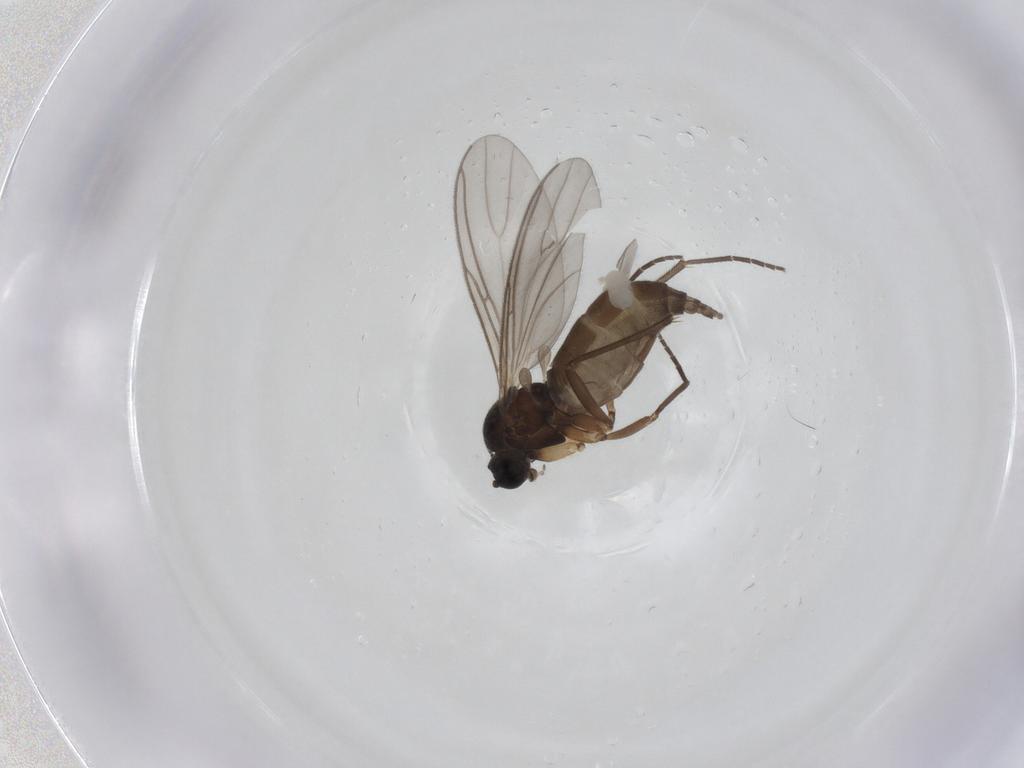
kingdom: Animalia
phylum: Arthropoda
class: Insecta
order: Diptera
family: Sciaridae
